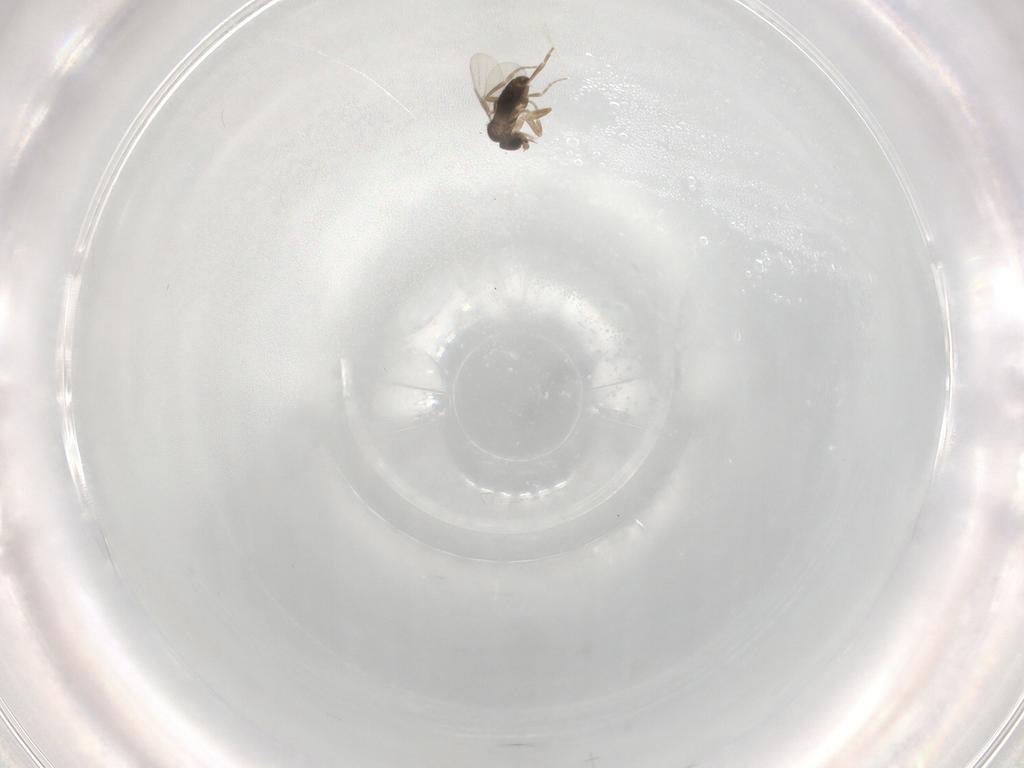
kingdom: Animalia
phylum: Arthropoda
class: Insecta
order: Diptera
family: Phoridae
